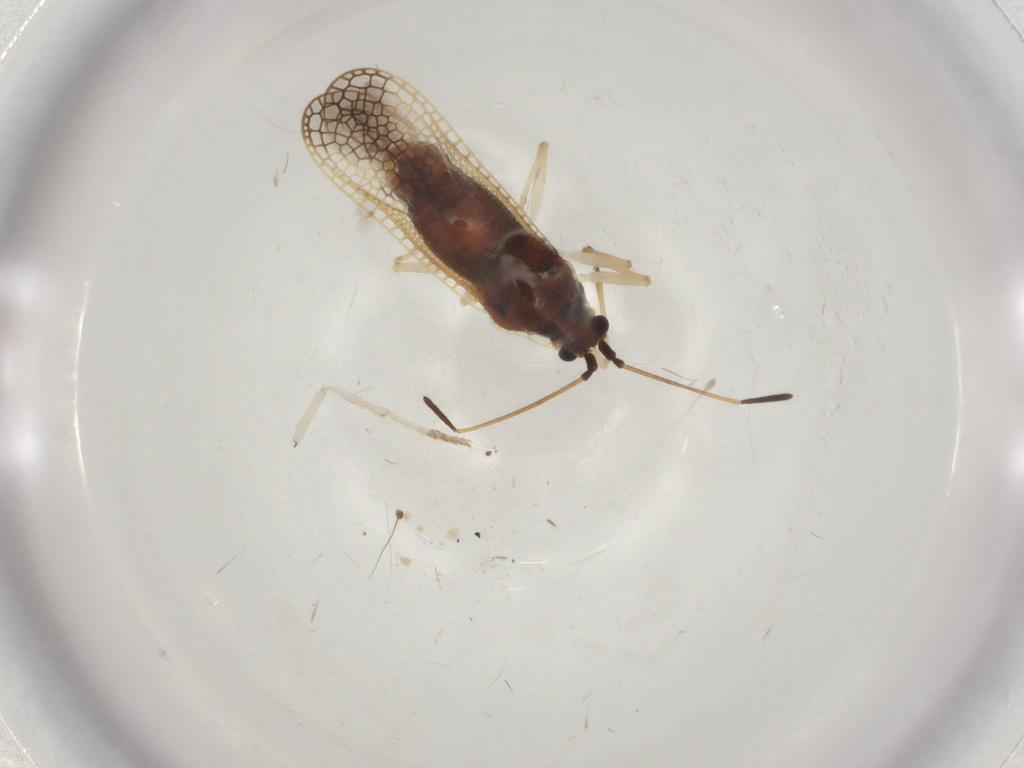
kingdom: Animalia
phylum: Arthropoda
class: Insecta
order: Hemiptera
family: Tingidae
